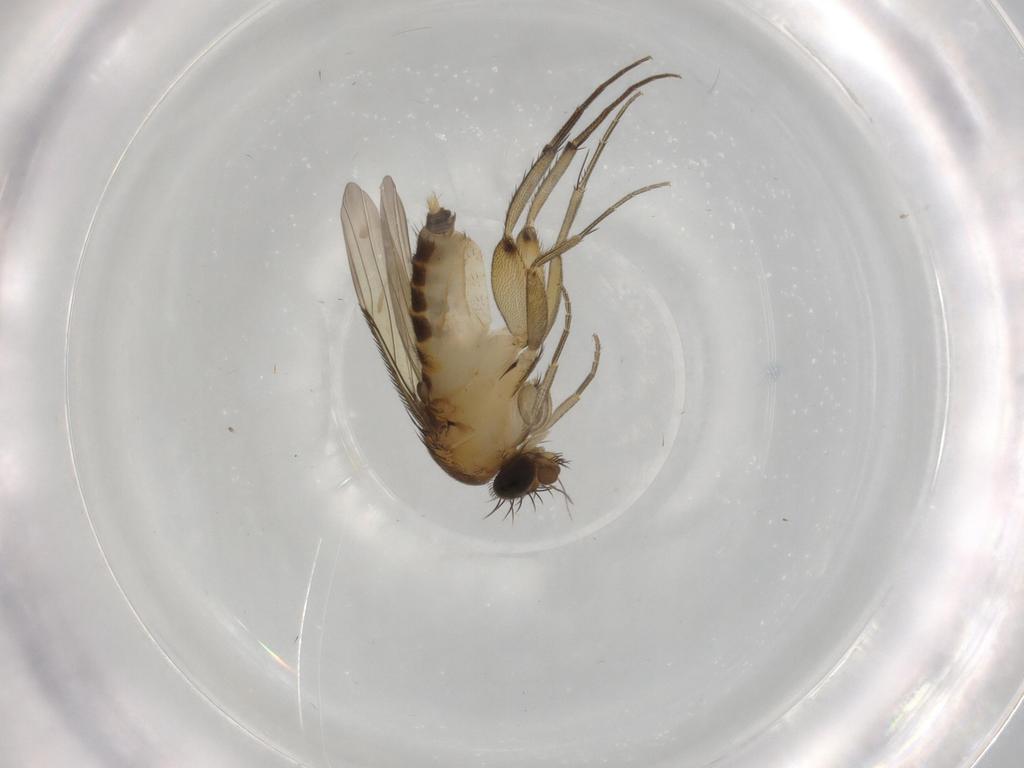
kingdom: Animalia
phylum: Arthropoda
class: Insecta
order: Diptera
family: Phoridae
